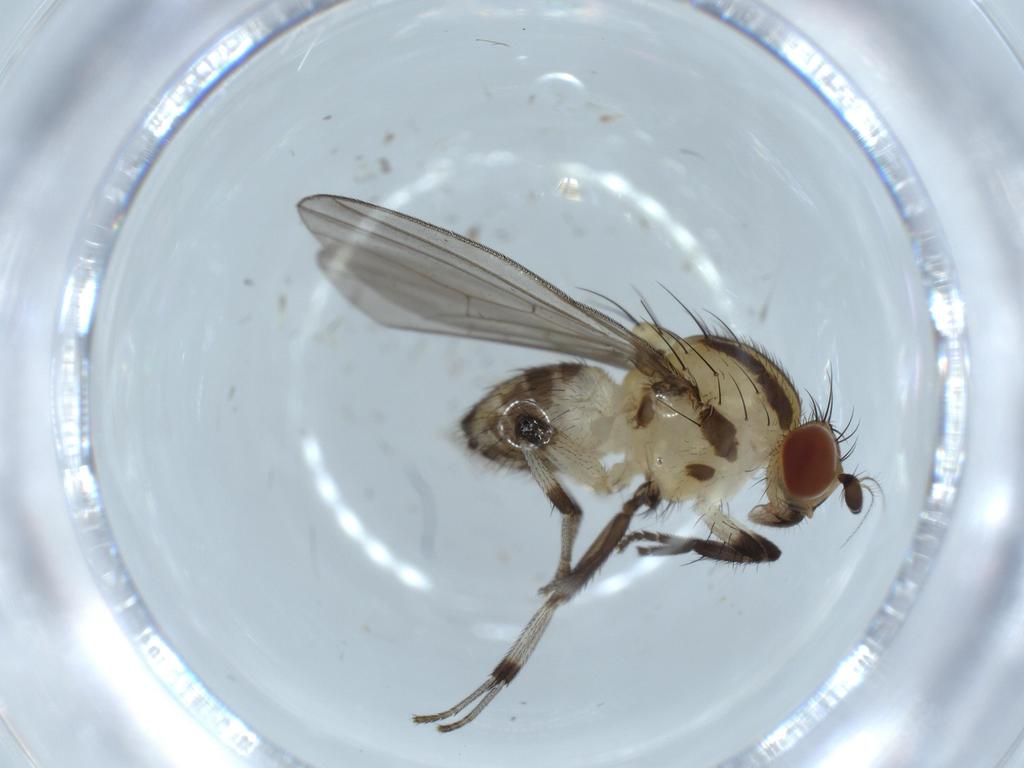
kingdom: Animalia
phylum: Arthropoda
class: Insecta
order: Diptera
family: Lauxaniidae
